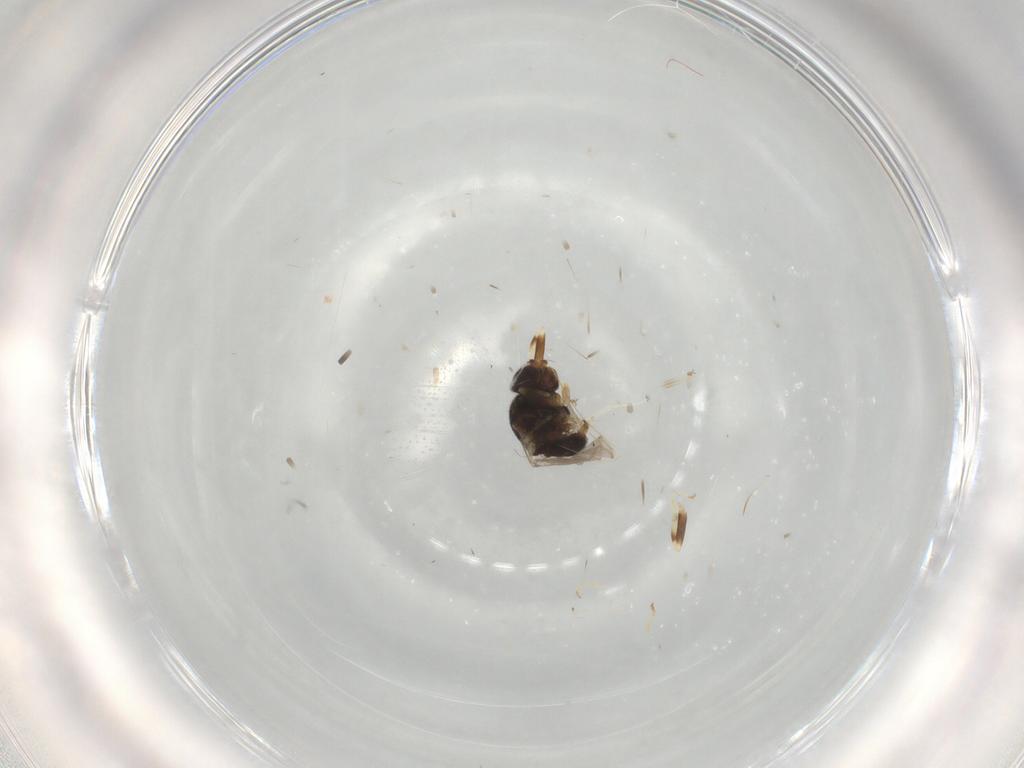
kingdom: Animalia
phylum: Arthropoda
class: Insecta
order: Diptera
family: Chloropidae
